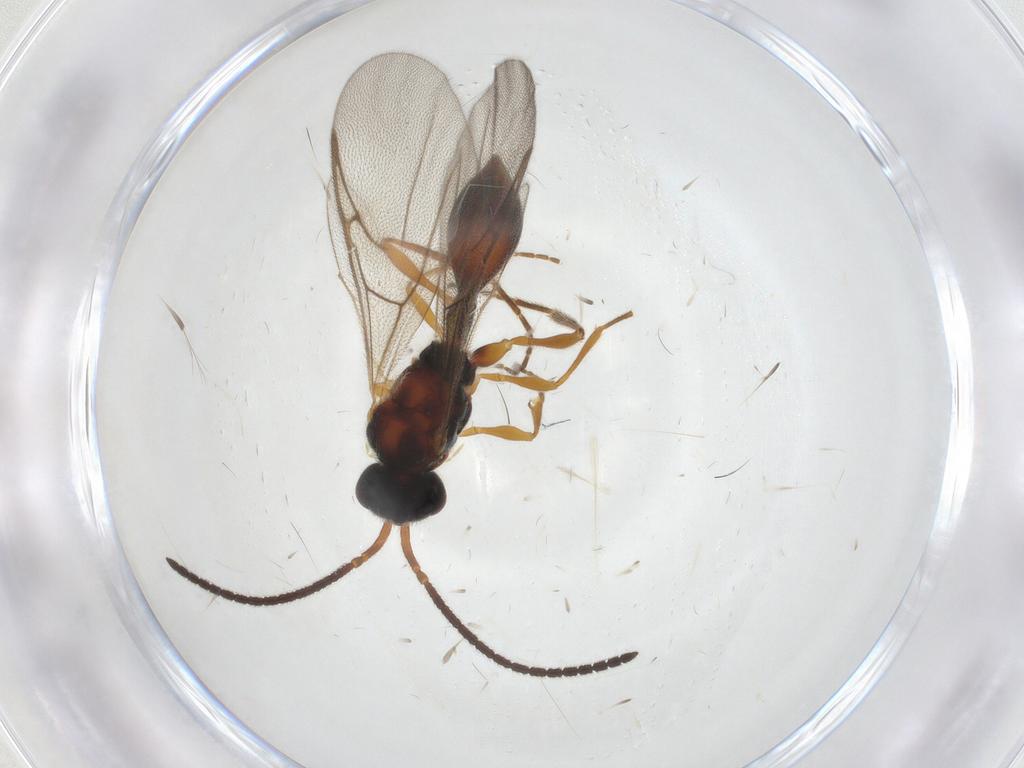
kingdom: Animalia
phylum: Arthropoda
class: Insecta
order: Hymenoptera
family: Diapriidae
